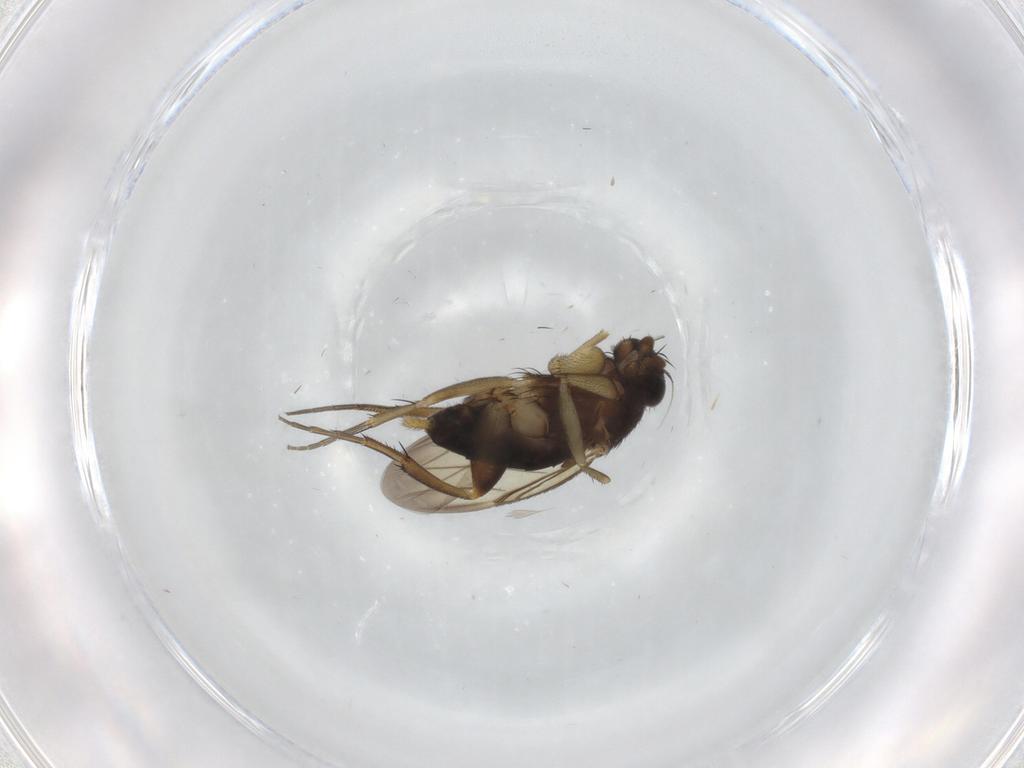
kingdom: Animalia
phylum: Arthropoda
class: Insecta
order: Diptera
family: Phoridae
